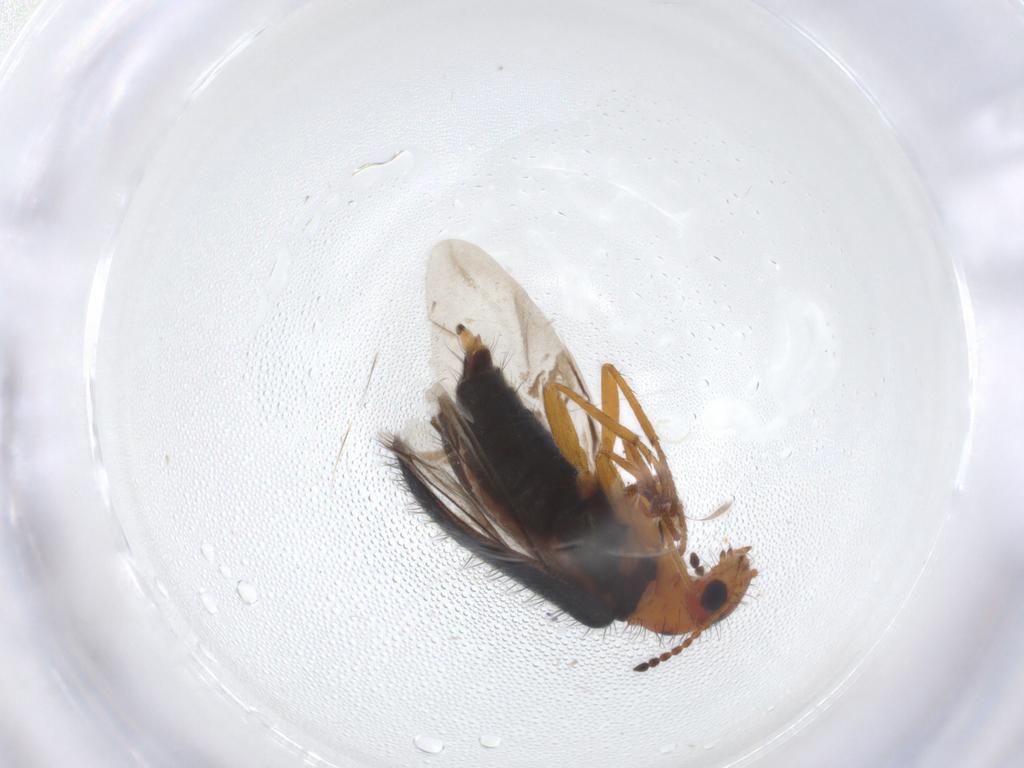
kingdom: Animalia
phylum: Arthropoda
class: Insecta
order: Coleoptera
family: Melyridae
